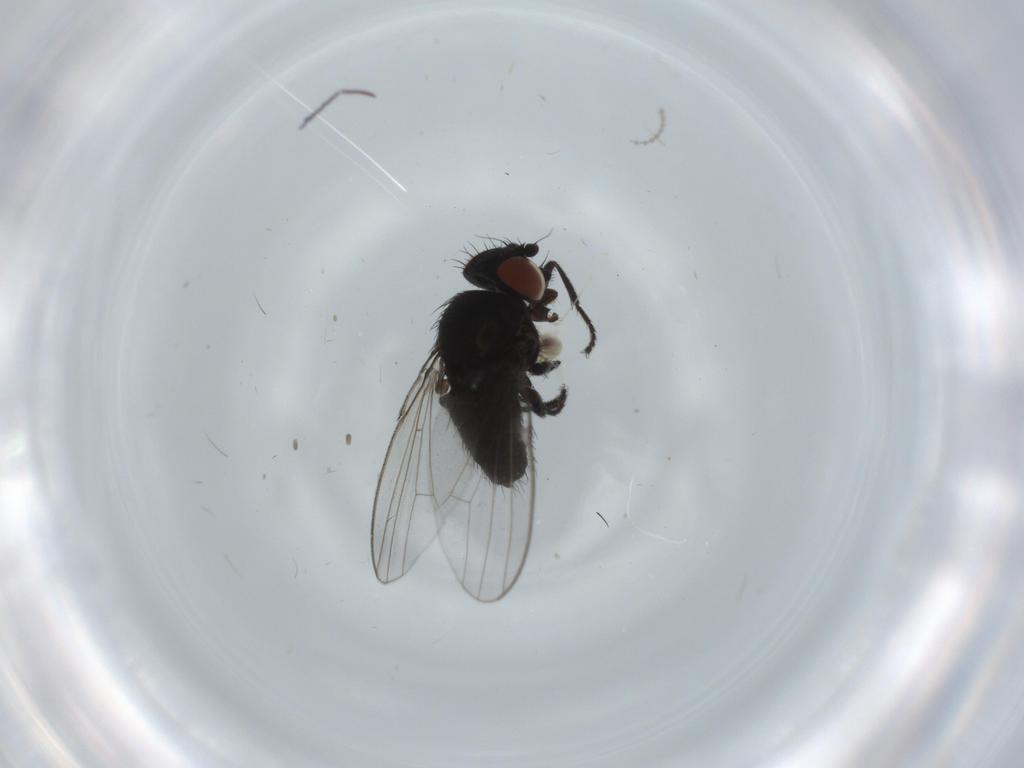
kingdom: Animalia
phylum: Arthropoda
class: Insecta
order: Diptera
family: Milichiidae
